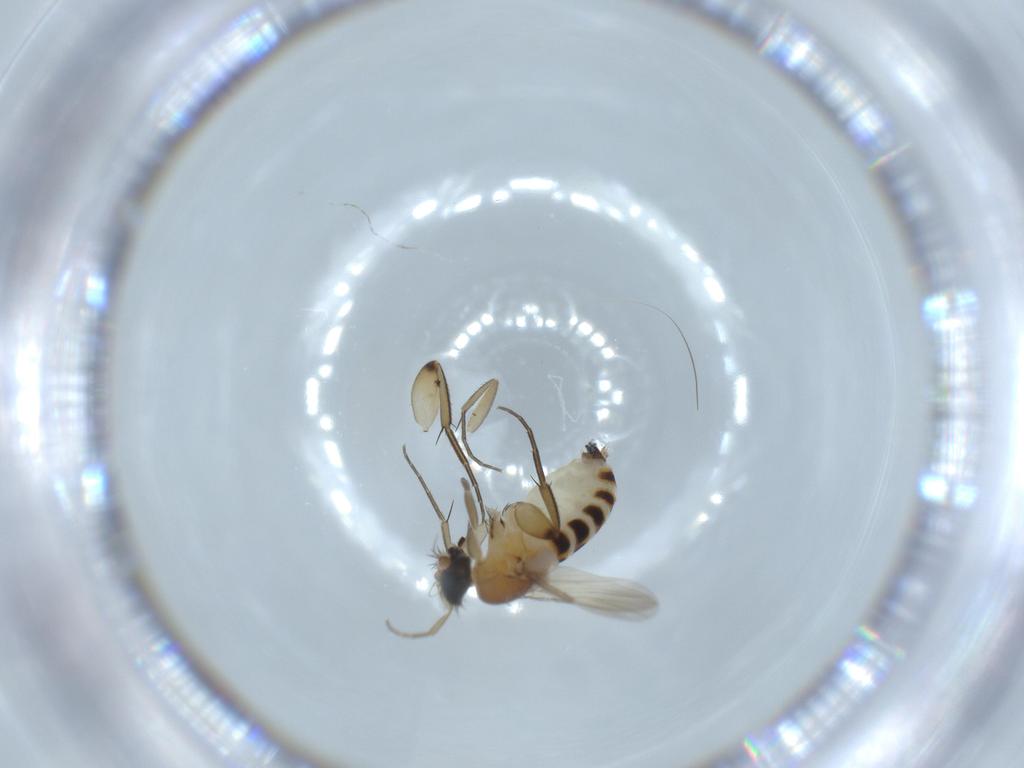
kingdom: Animalia
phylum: Arthropoda
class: Insecta
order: Diptera
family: Phoridae
